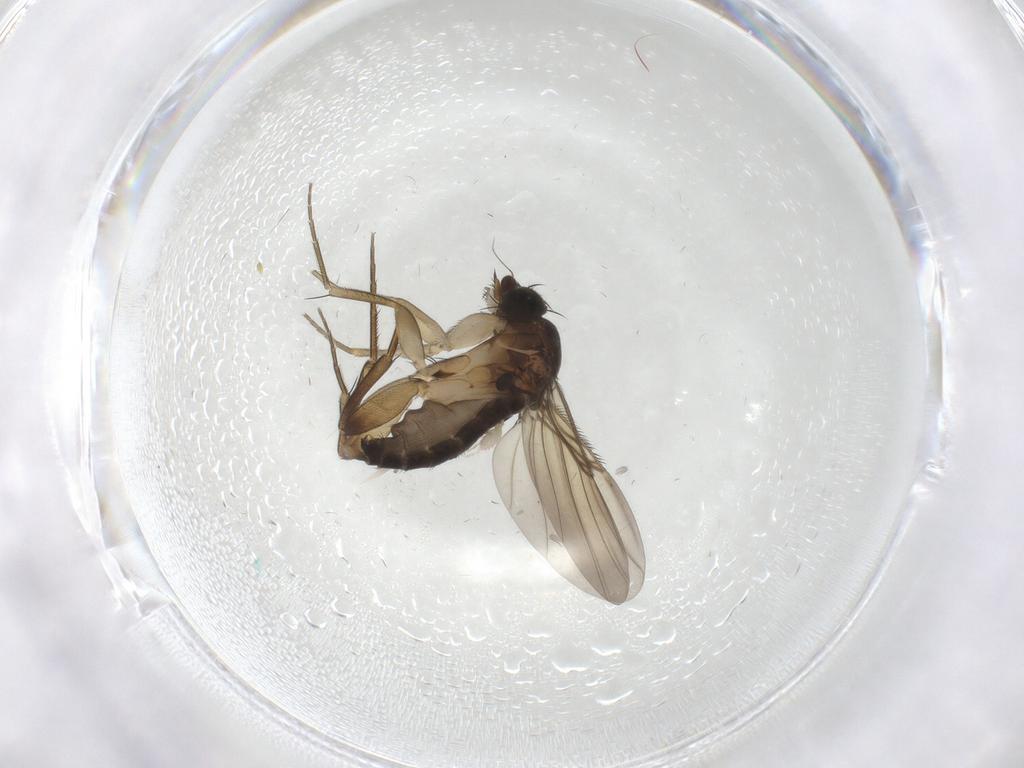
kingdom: Animalia
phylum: Arthropoda
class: Insecta
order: Diptera
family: Phoridae
